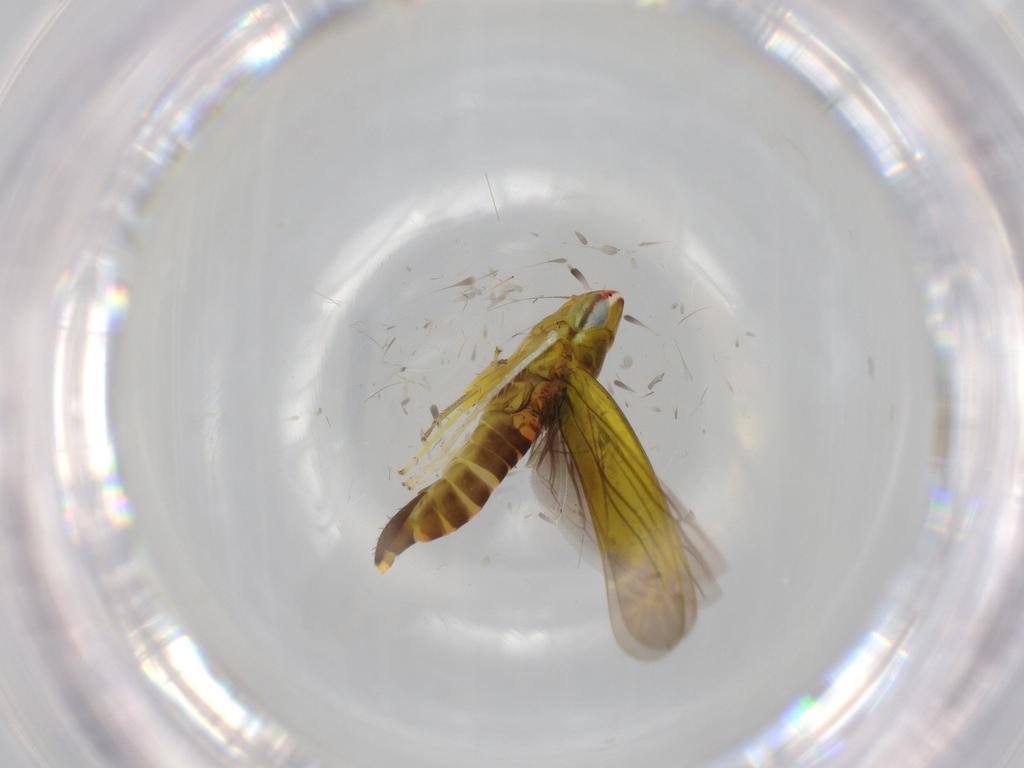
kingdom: Animalia
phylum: Arthropoda
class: Insecta
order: Hemiptera
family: Cicadellidae
